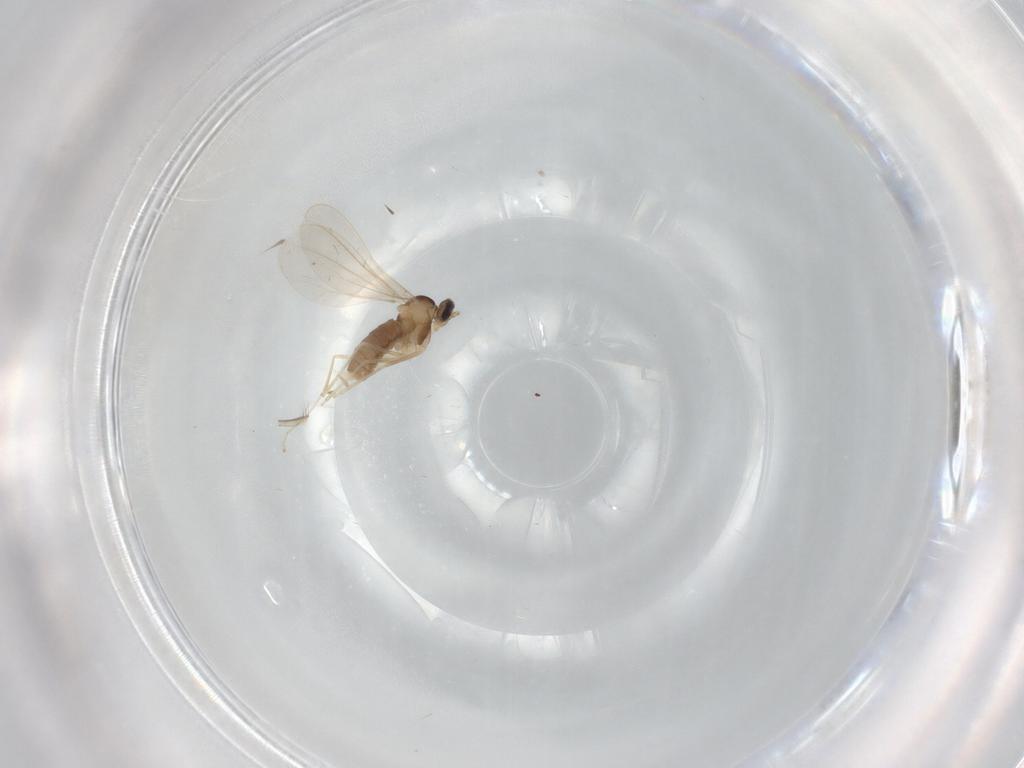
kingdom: Animalia
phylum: Arthropoda
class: Insecta
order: Diptera
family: Cecidomyiidae
